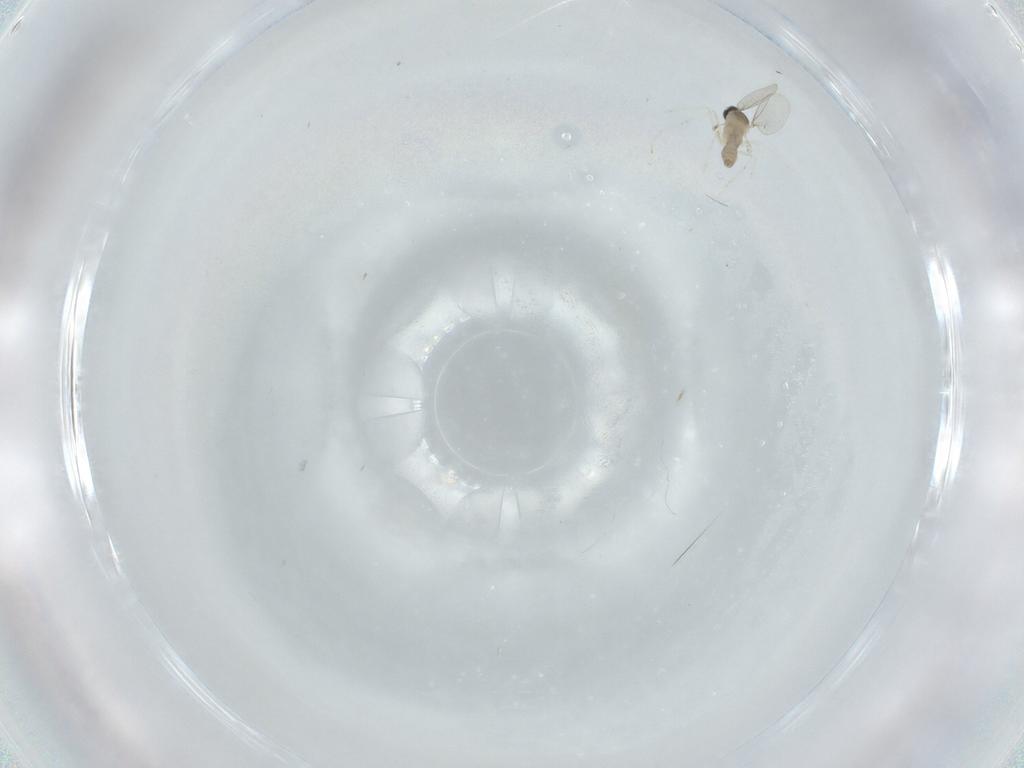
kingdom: Animalia
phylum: Arthropoda
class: Insecta
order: Diptera
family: Cecidomyiidae
